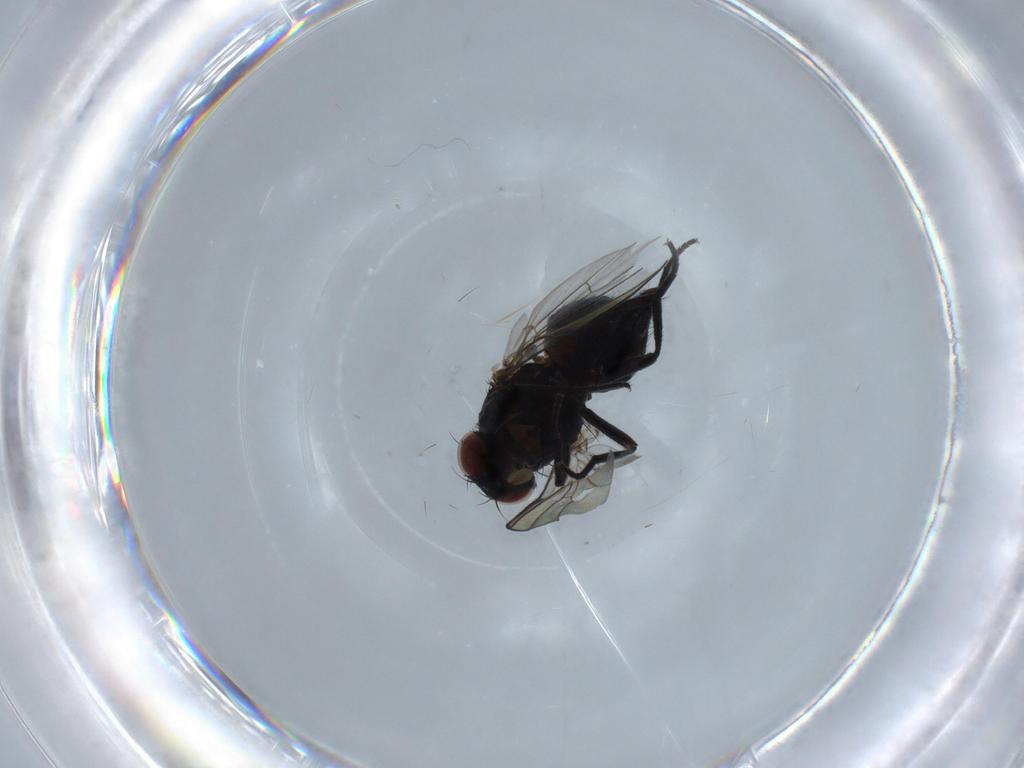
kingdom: Animalia
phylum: Arthropoda
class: Insecta
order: Diptera
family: Agromyzidae
